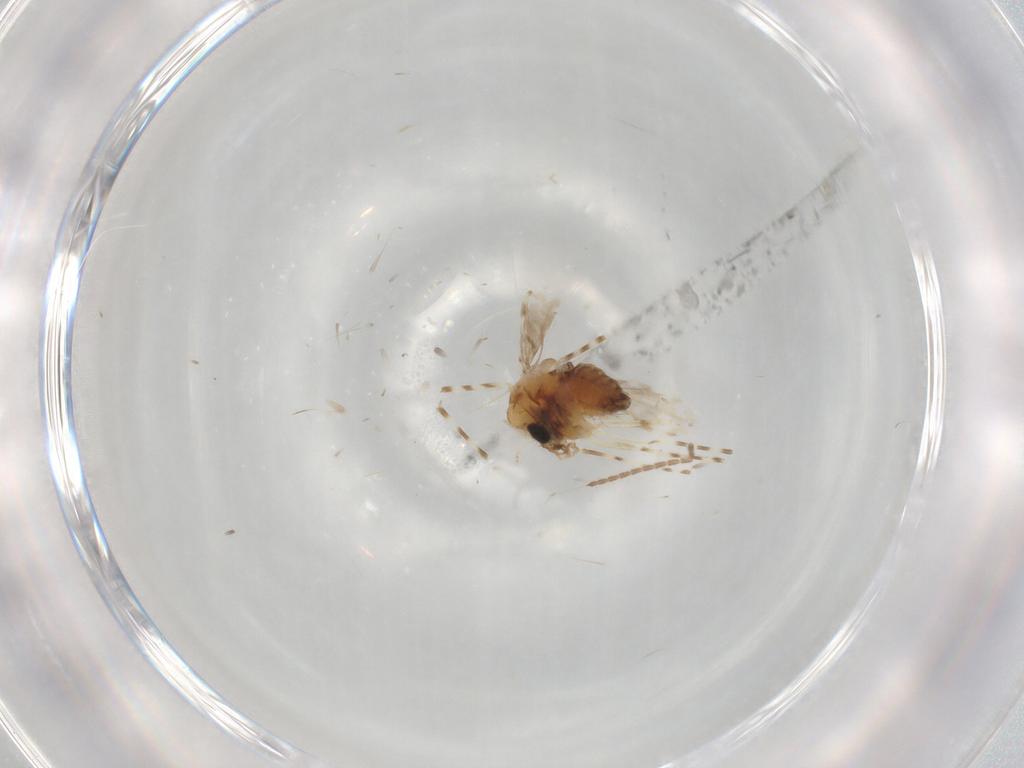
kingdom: Animalia
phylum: Arthropoda
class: Insecta
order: Diptera
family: Chironomidae
